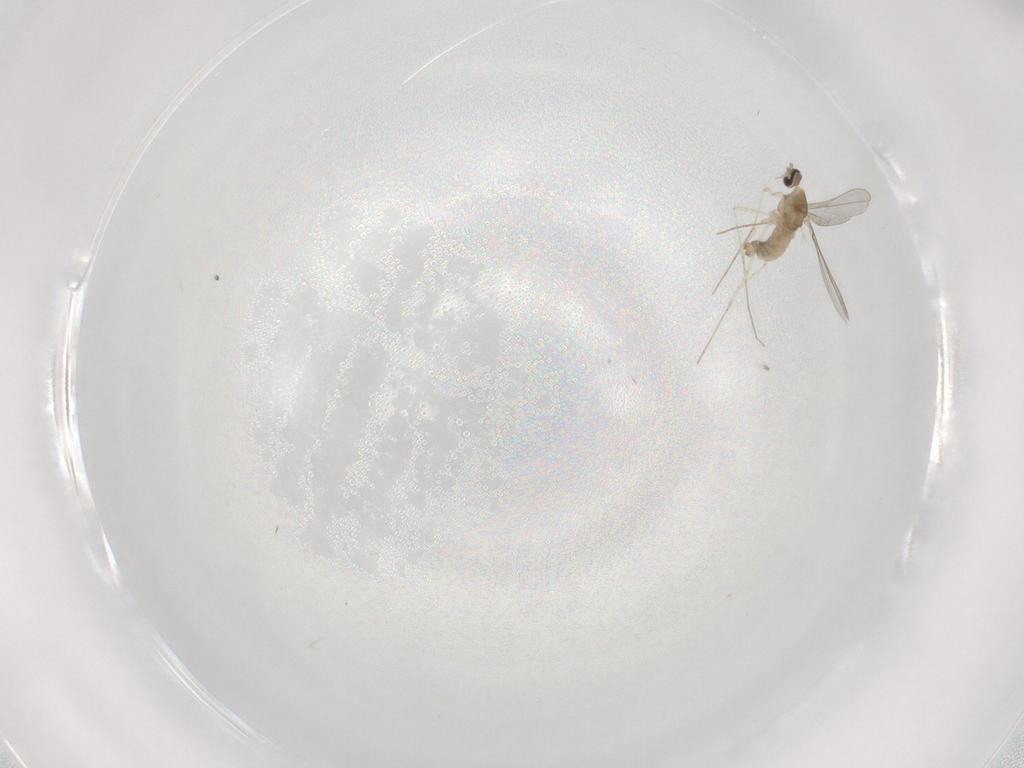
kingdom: Animalia
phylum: Arthropoda
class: Insecta
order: Diptera
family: Cecidomyiidae
